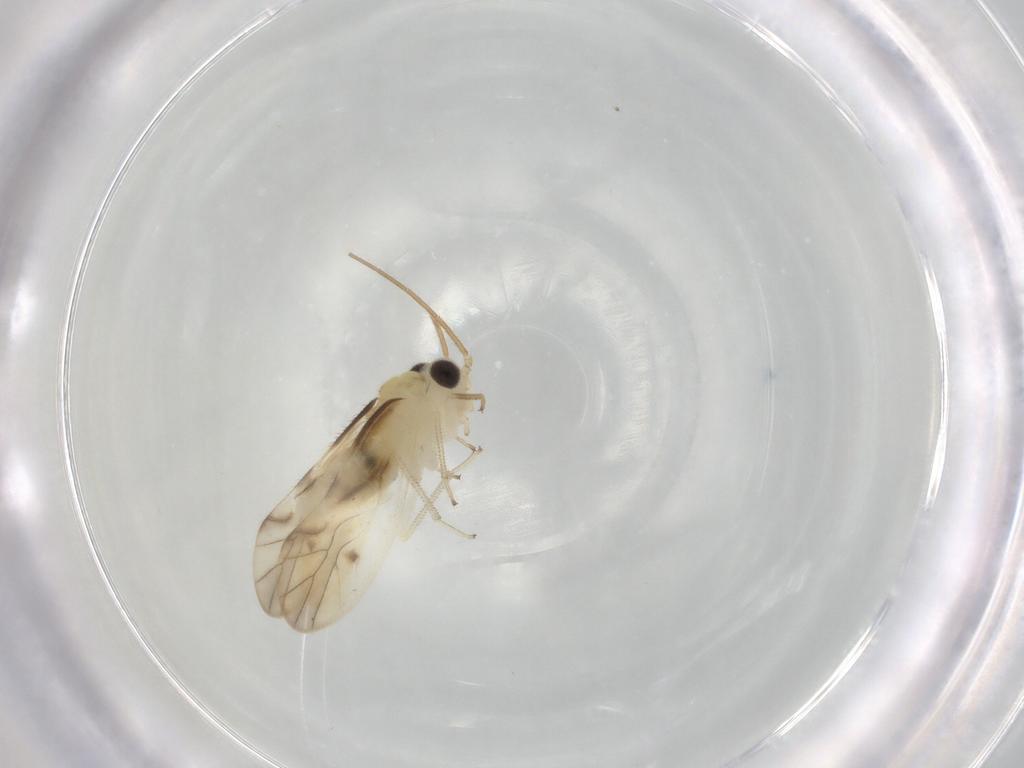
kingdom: Animalia
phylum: Arthropoda
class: Insecta
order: Psocodea
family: Caeciliusidae
